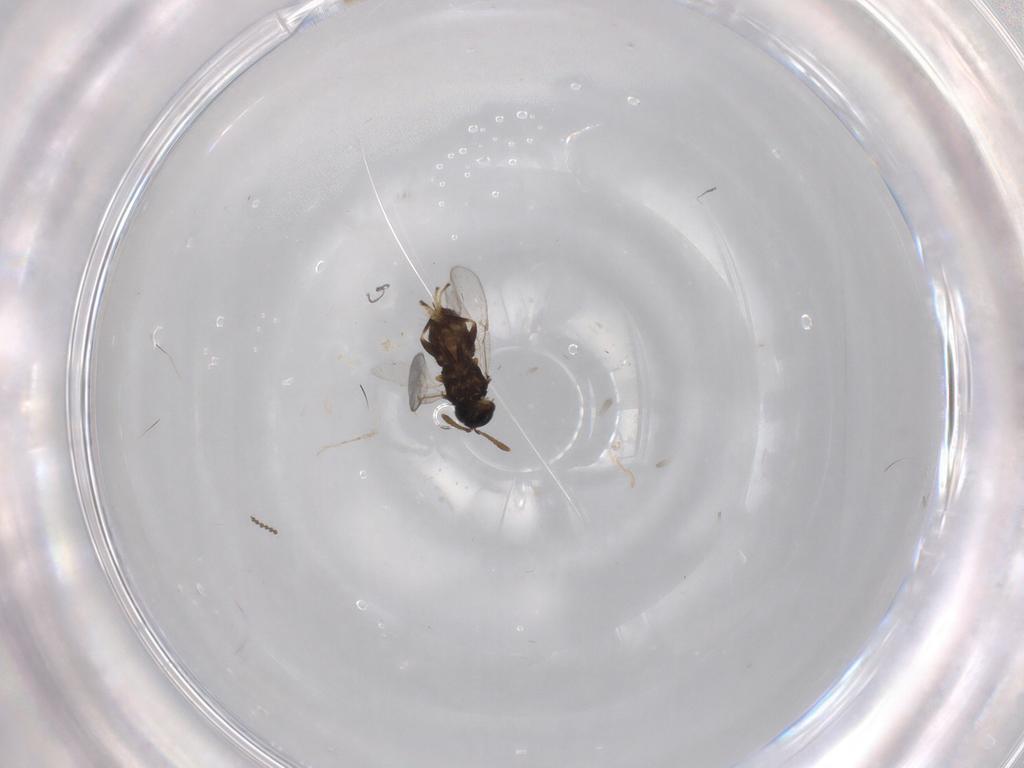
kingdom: Animalia
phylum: Arthropoda
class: Insecta
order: Hymenoptera
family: Encyrtidae
